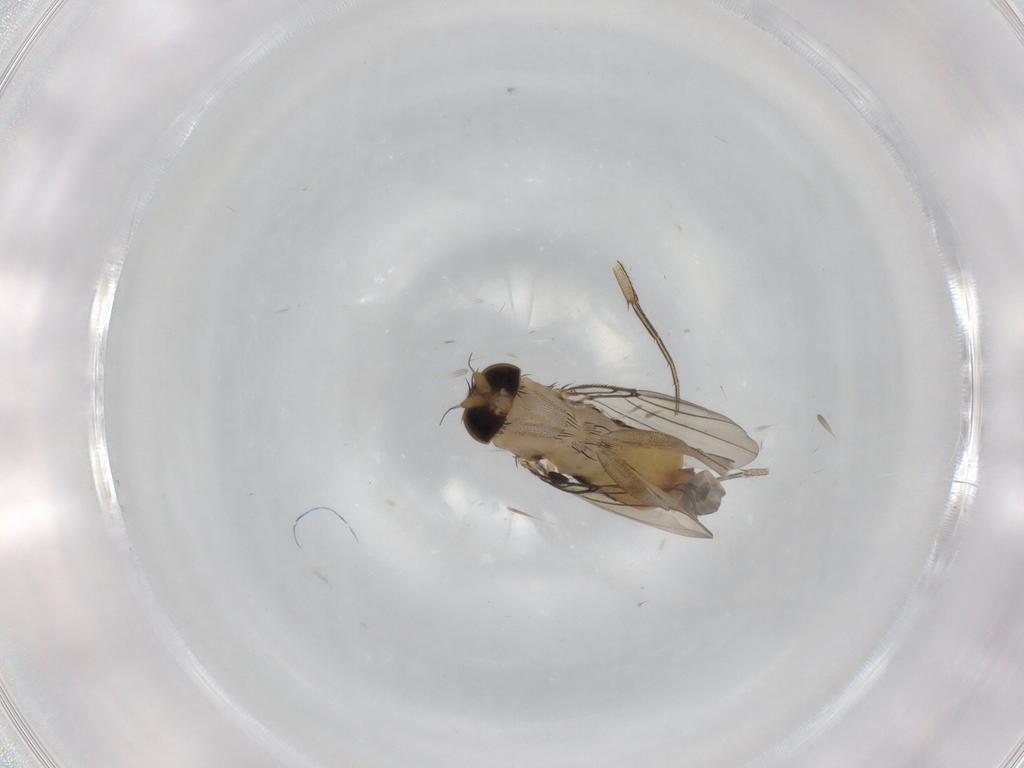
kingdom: Animalia
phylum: Arthropoda
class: Insecta
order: Diptera
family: Phoridae
